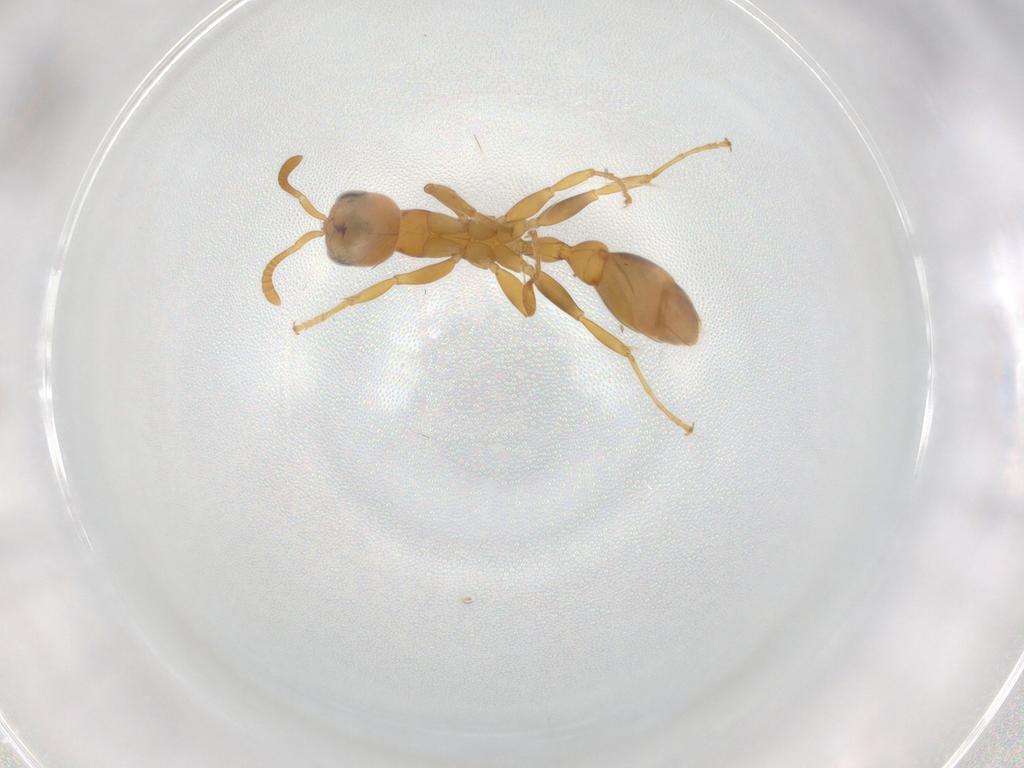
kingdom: Animalia
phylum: Arthropoda
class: Insecta
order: Hymenoptera
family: Formicidae
